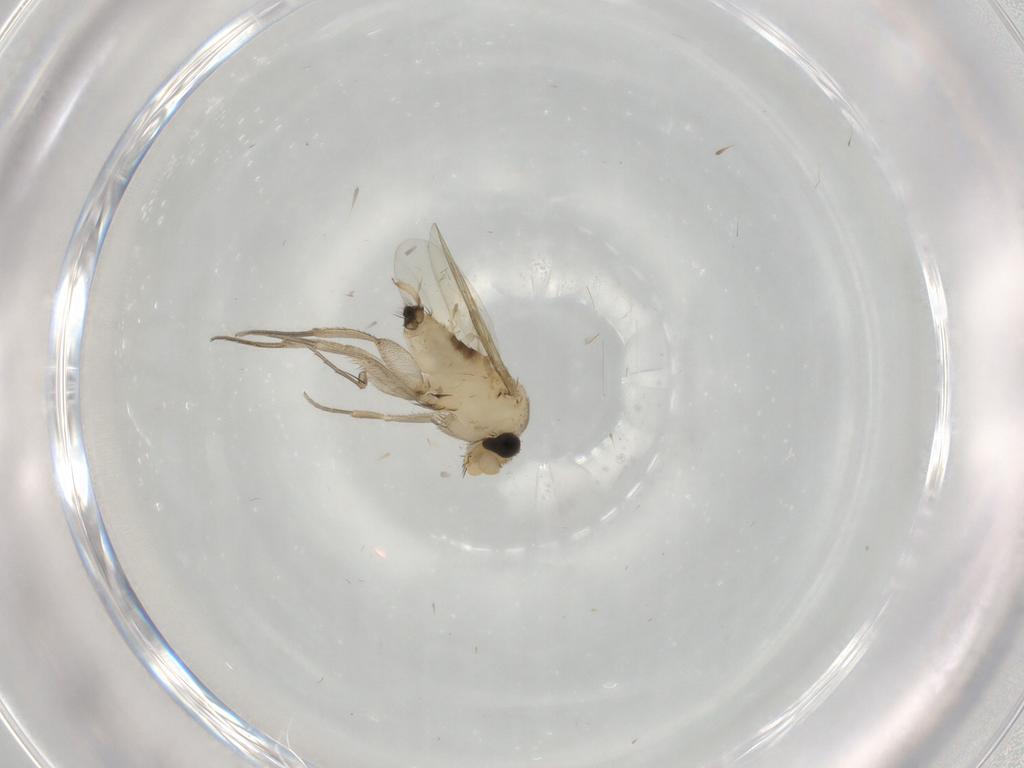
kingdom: Animalia
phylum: Arthropoda
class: Insecta
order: Diptera
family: Phoridae
